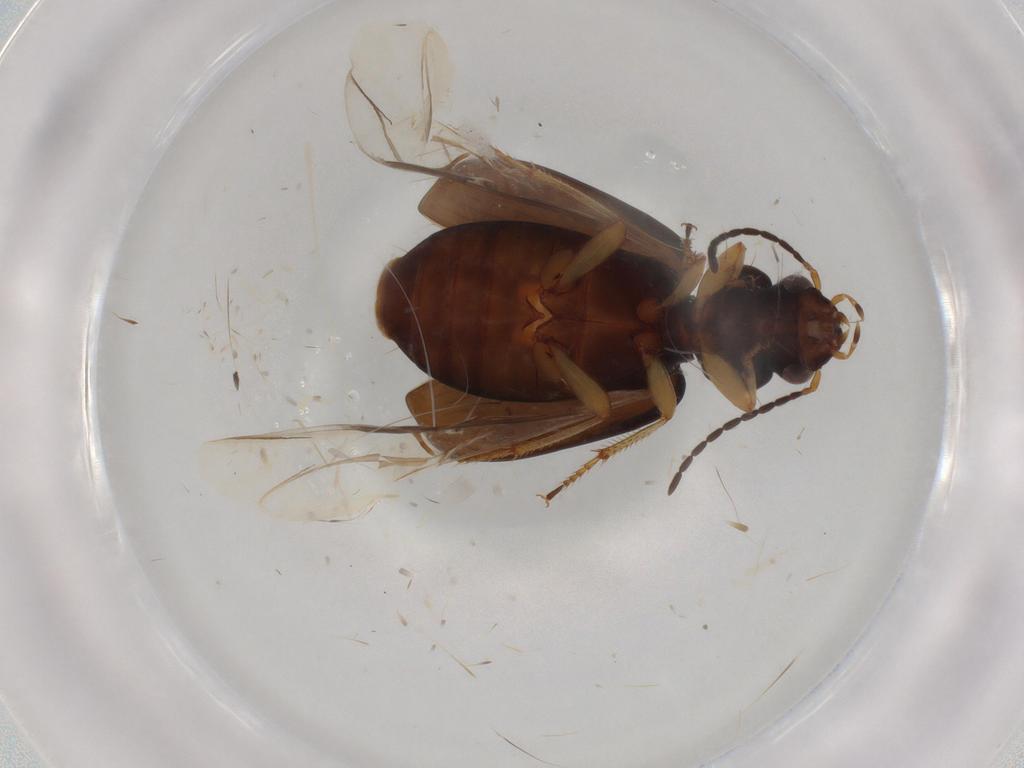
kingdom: Animalia
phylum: Arthropoda
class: Insecta
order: Coleoptera
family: Carabidae
